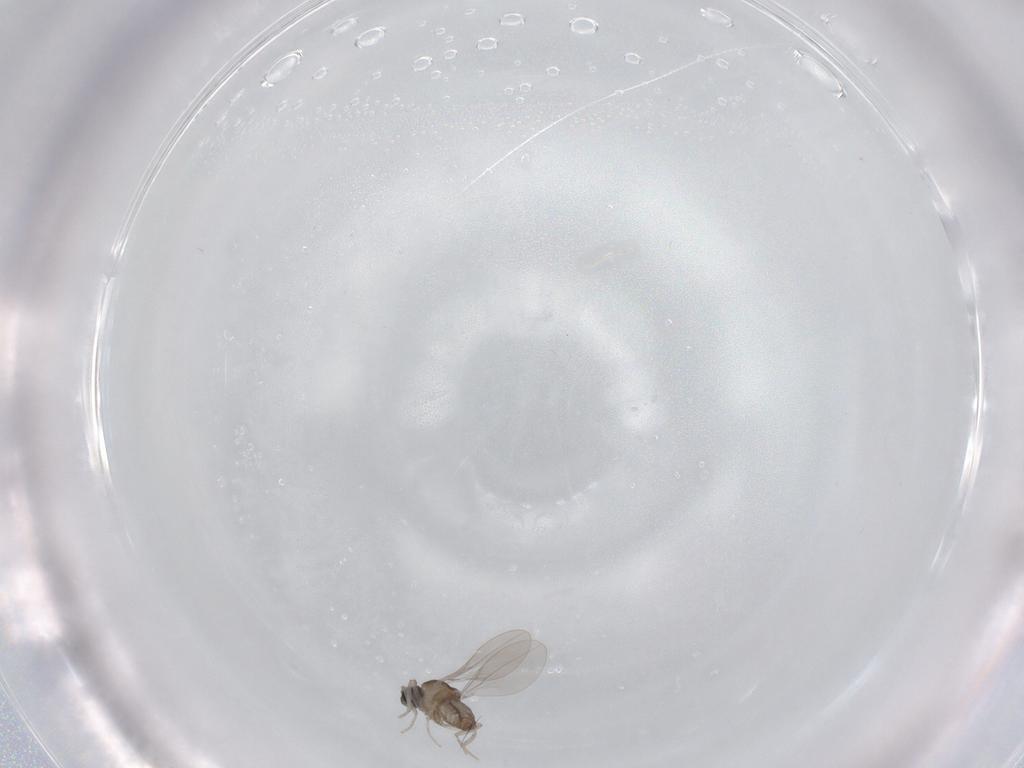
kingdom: Animalia
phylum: Arthropoda
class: Insecta
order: Diptera
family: Cecidomyiidae
